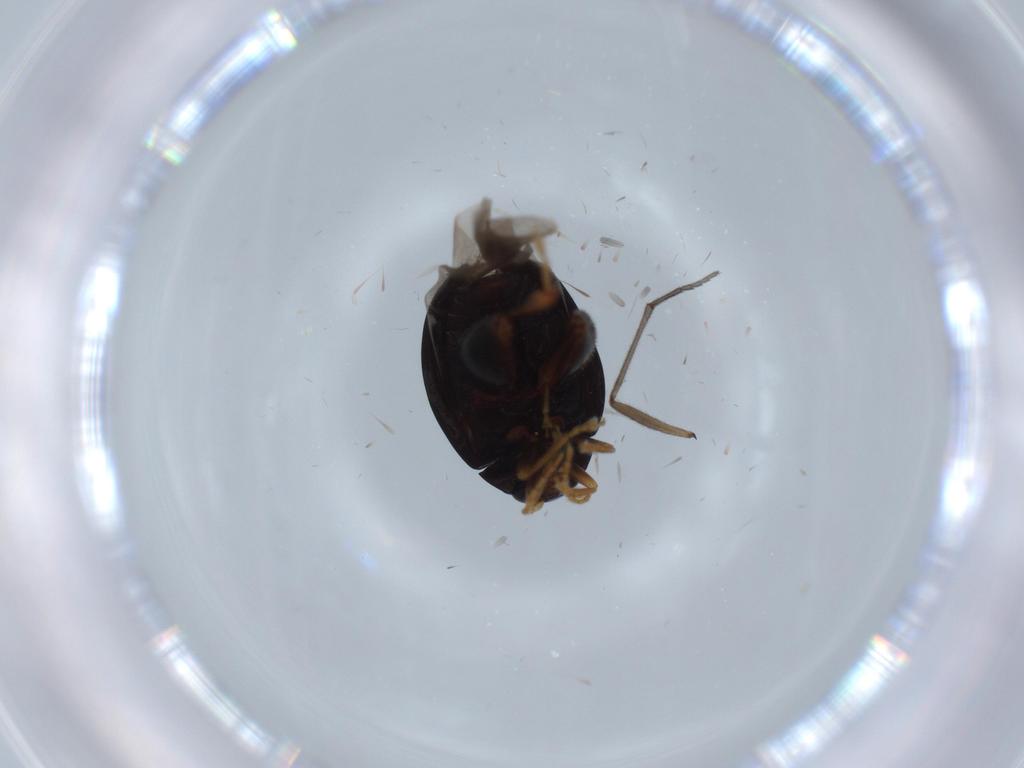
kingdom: Animalia
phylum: Arthropoda
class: Insecta
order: Coleoptera
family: Chrysomelidae
